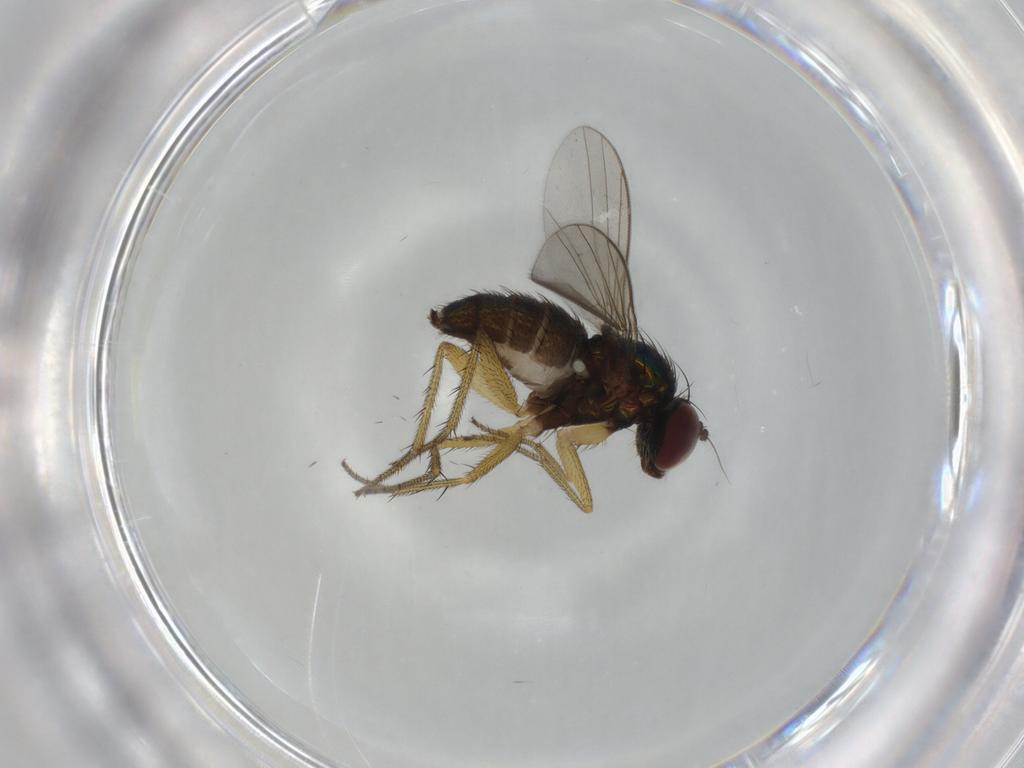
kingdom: Animalia
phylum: Arthropoda
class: Insecta
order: Diptera
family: Dolichopodidae
